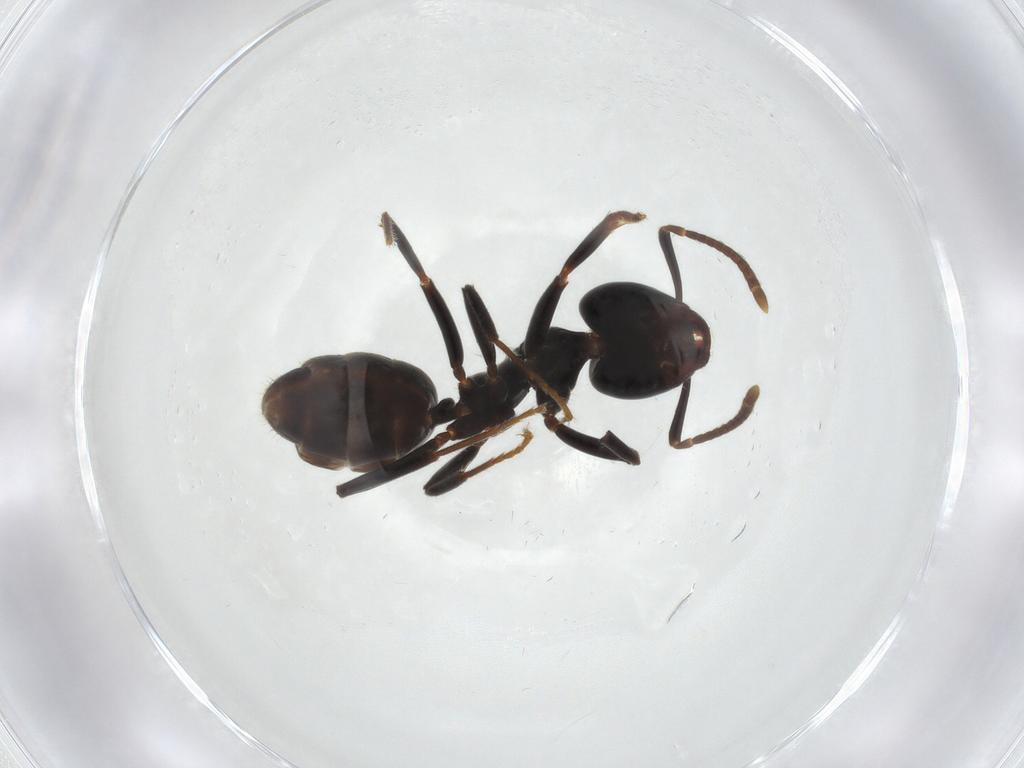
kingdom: Animalia
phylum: Arthropoda
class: Insecta
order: Hymenoptera
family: Formicidae
